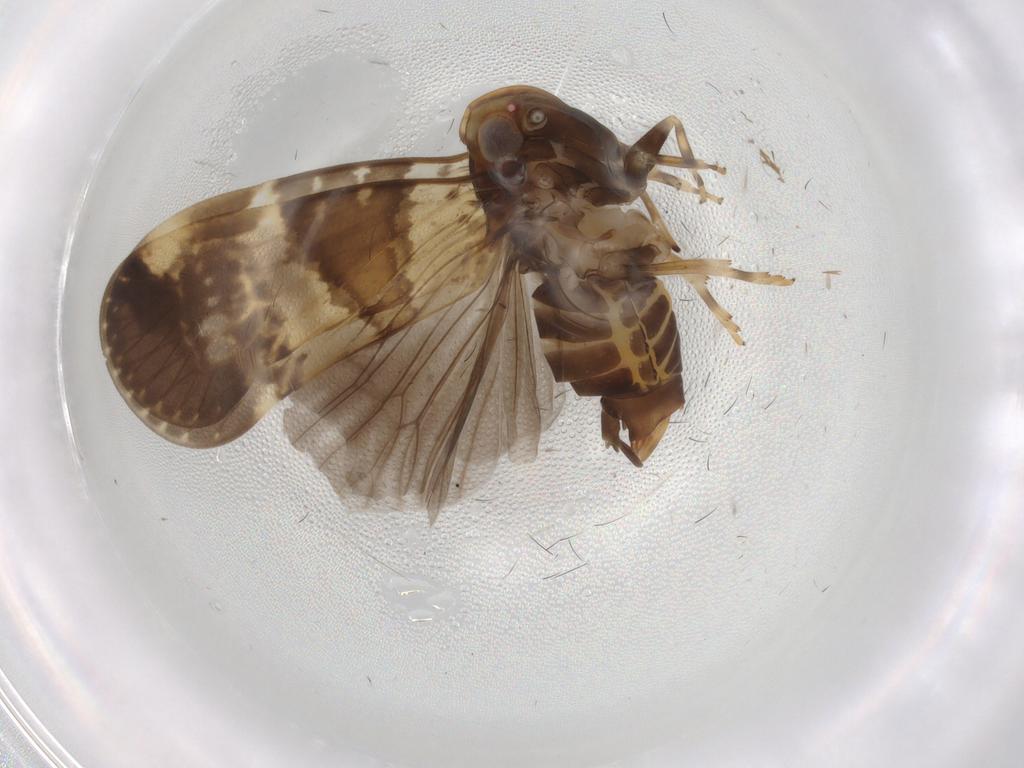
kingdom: Animalia
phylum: Arthropoda
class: Insecta
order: Hemiptera
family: Cixiidae
